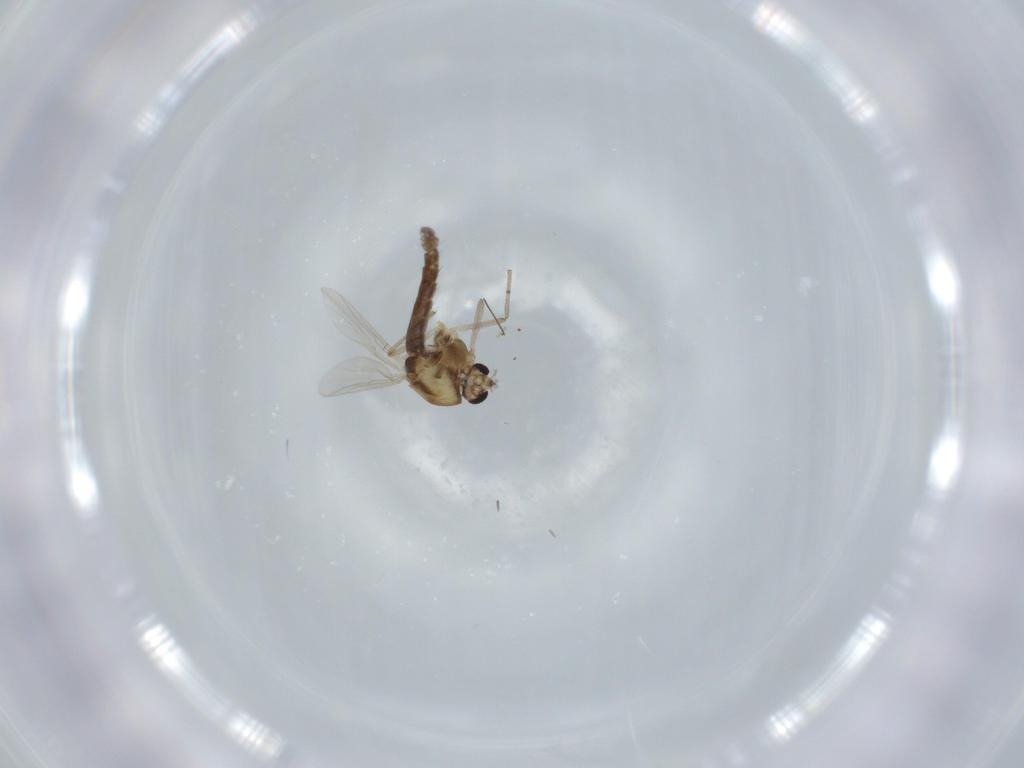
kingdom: Animalia
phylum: Arthropoda
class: Insecta
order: Diptera
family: Chironomidae
